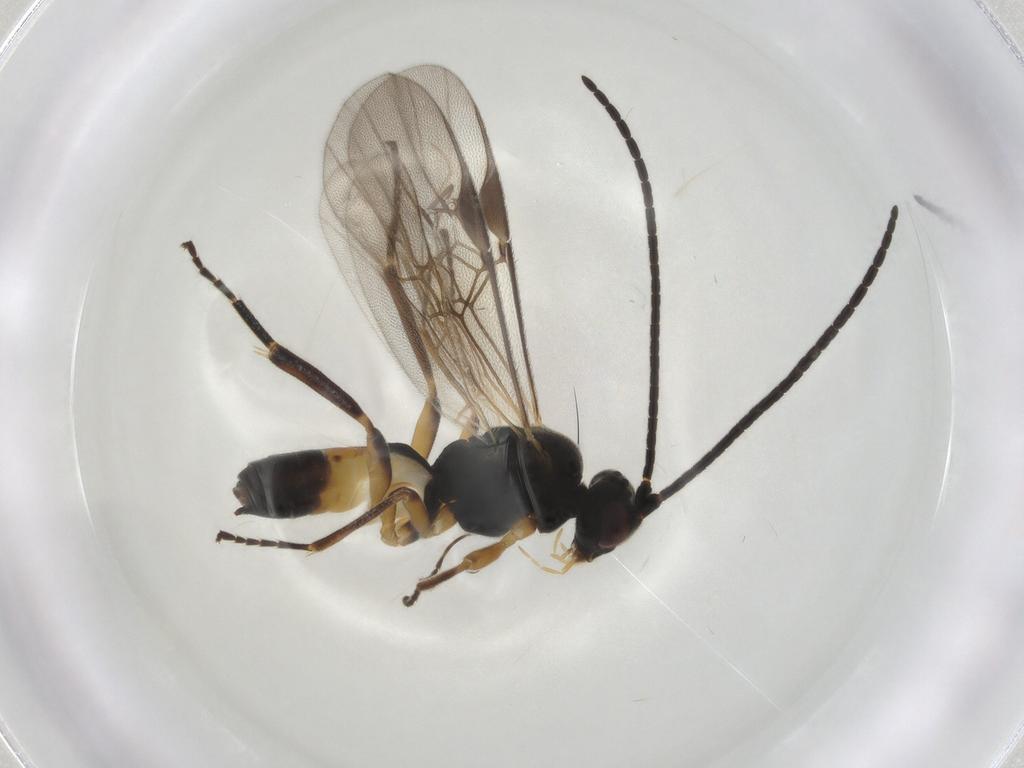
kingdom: Animalia
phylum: Arthropoda
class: Insecta
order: Hymenoptera
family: Braconidae
